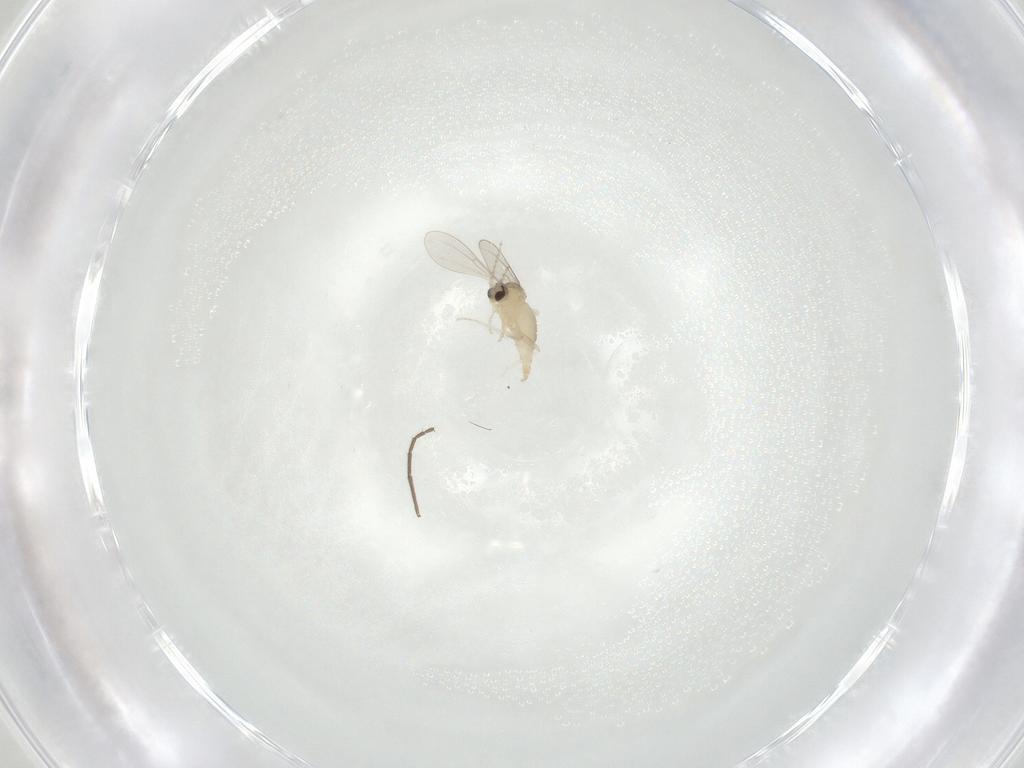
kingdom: Animalia
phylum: Arthropoda
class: Insecta
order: Diptera
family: Cecidomyiidae
